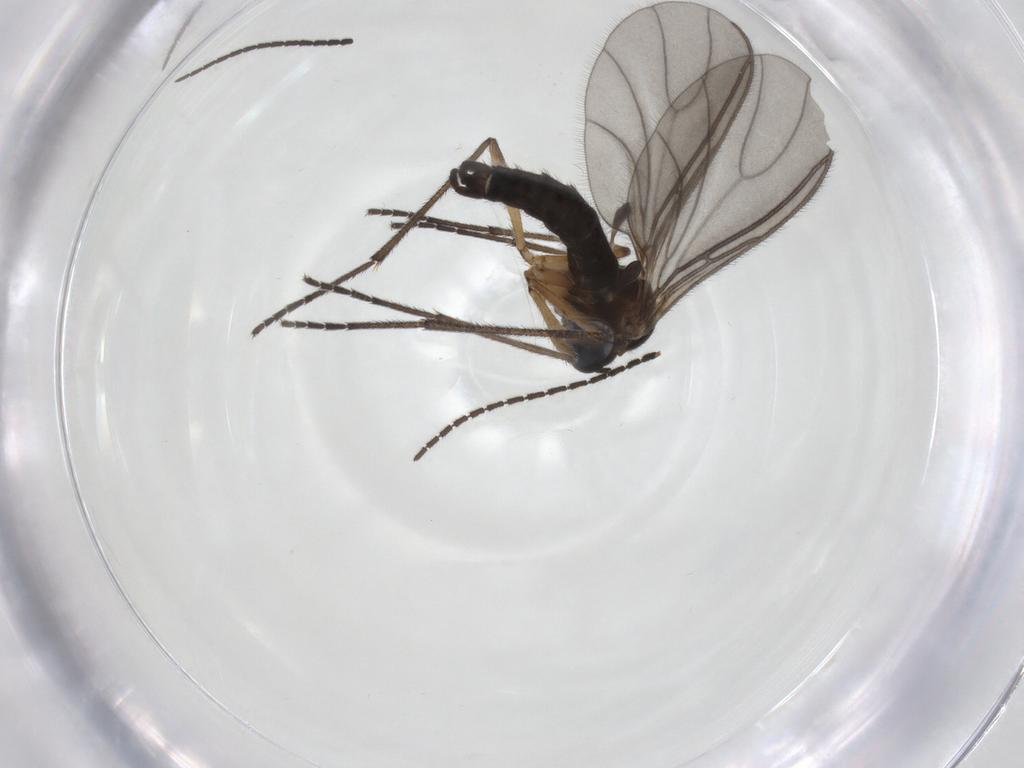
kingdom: Animalia
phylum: Arthropoda
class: Insecta
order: Diptera
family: Sciaridae
